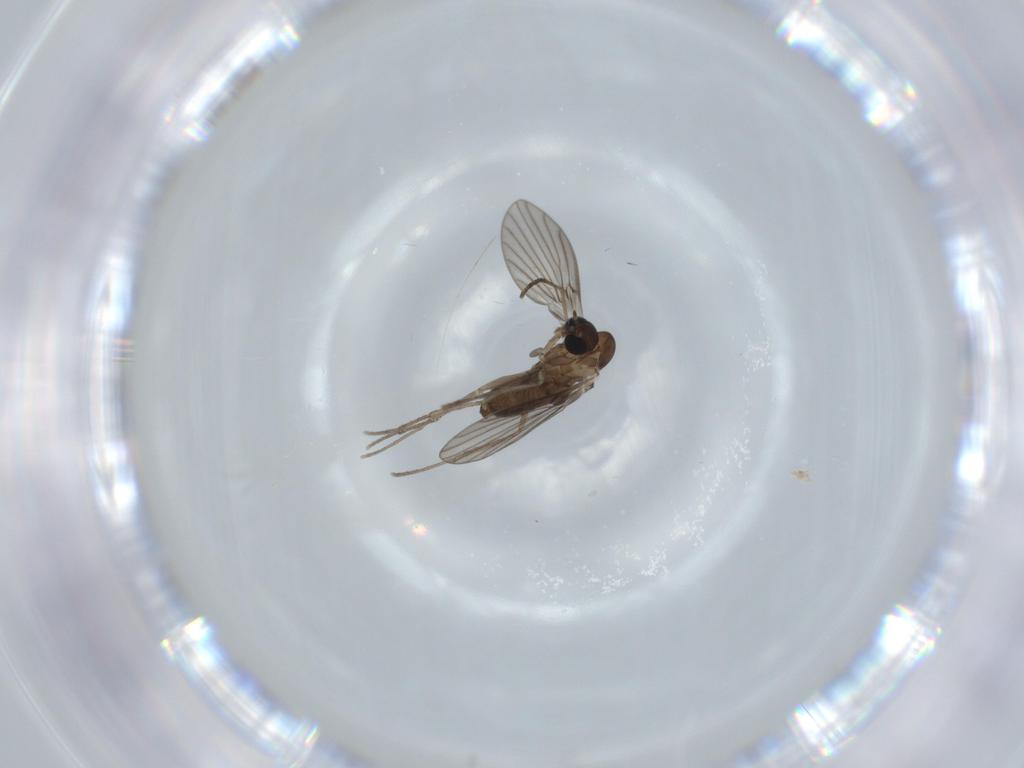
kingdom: Animalia
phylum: Arthropoda
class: Insecta
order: Diptera
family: Psychodidae
